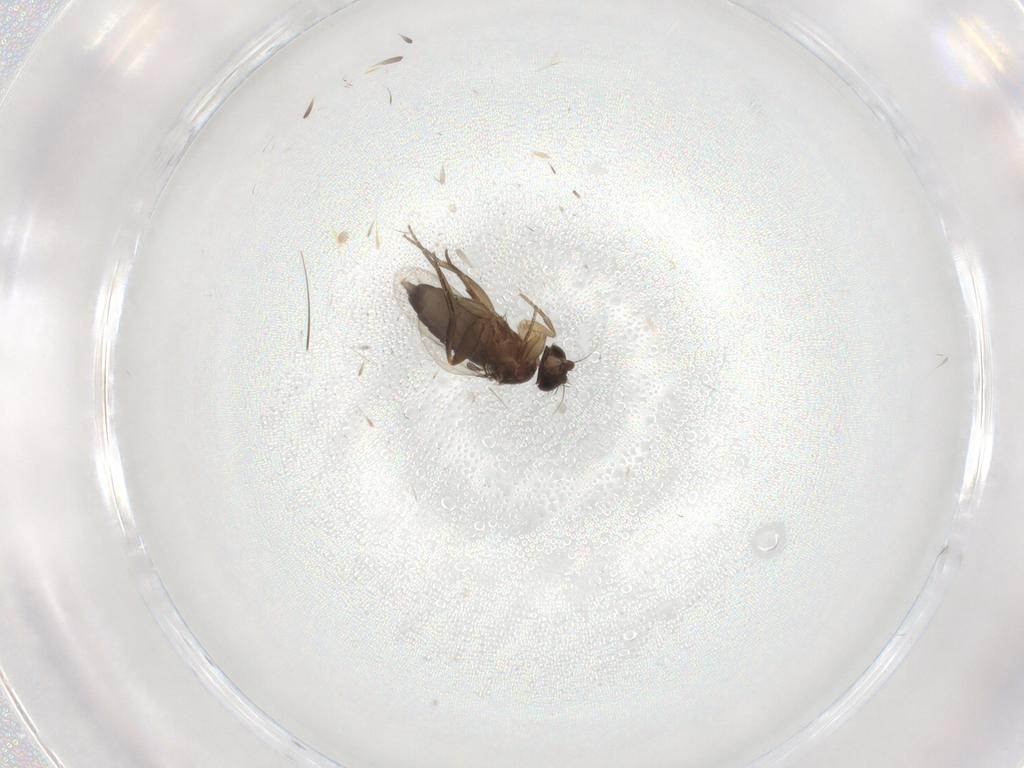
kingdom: Animalia
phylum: Arthropoda
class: Insecta
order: Diptera
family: Phoridae
